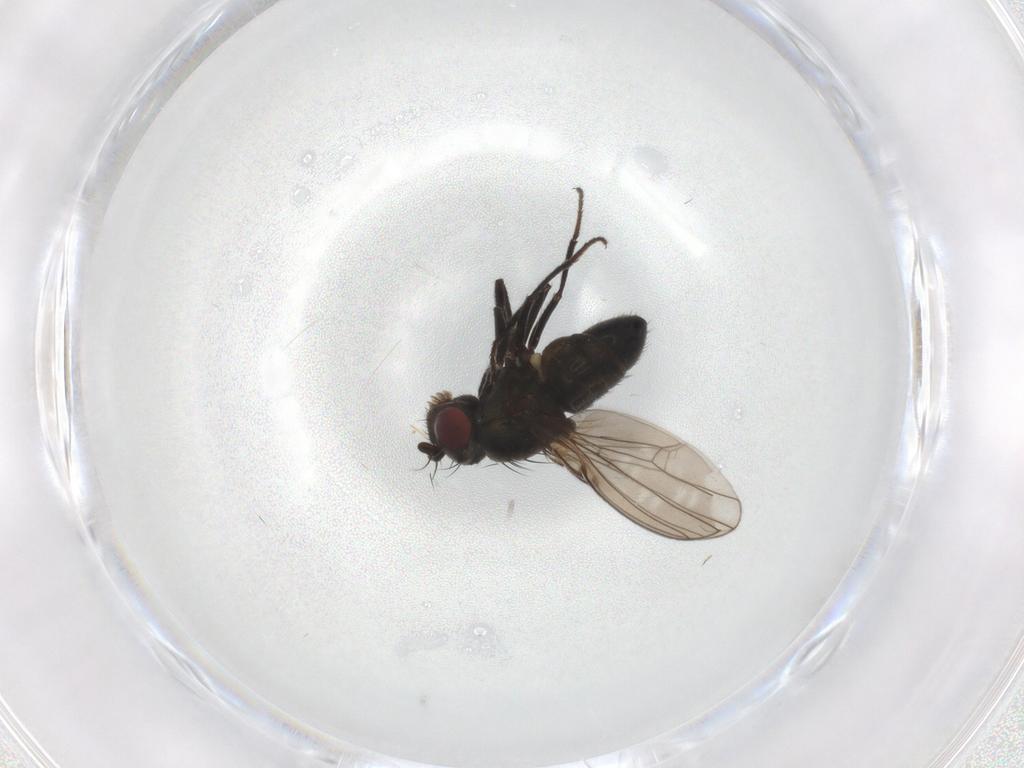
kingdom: Animalia
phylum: Arthropoda
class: Insecta
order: Diptera
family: Ephydridae
